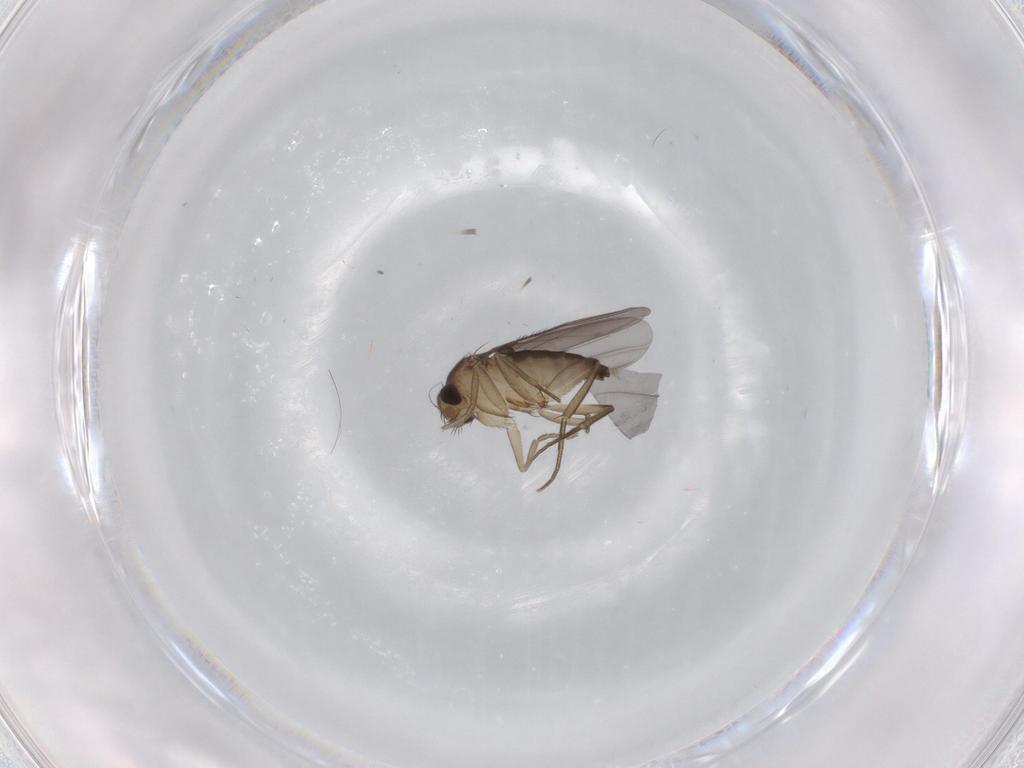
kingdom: Animalia
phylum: Arthropoda
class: Insecta
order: Diptera
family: Phoridae
